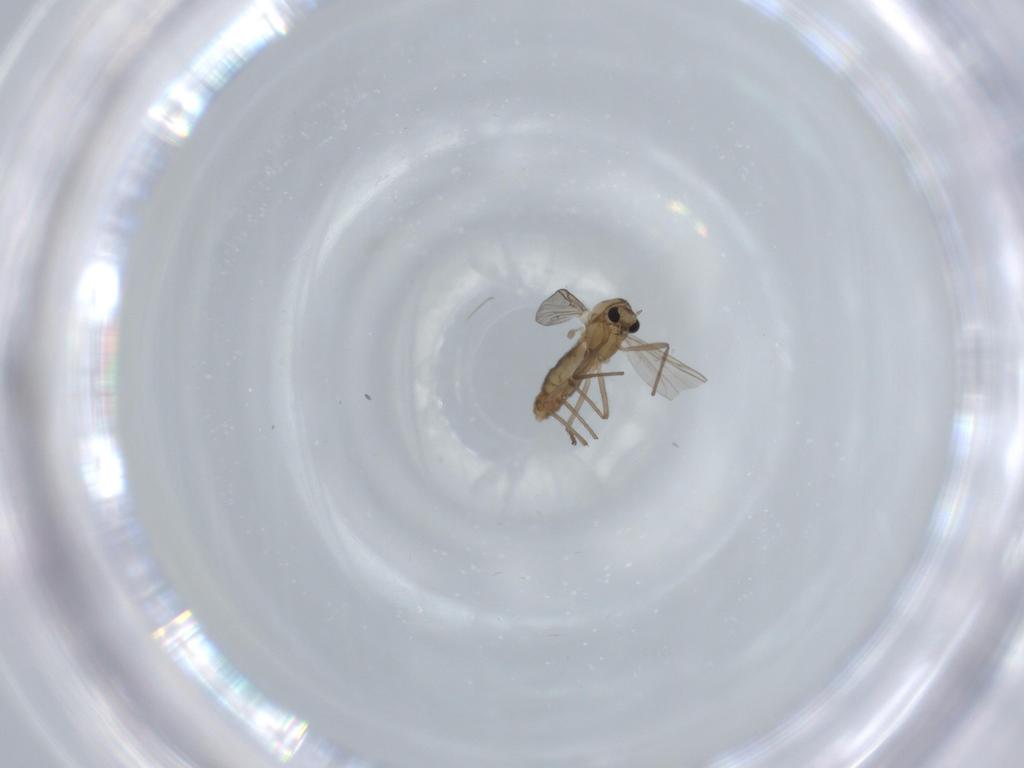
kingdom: Animalia
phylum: Arthropoda
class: Insecta
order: Diptera
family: Chironomidae
